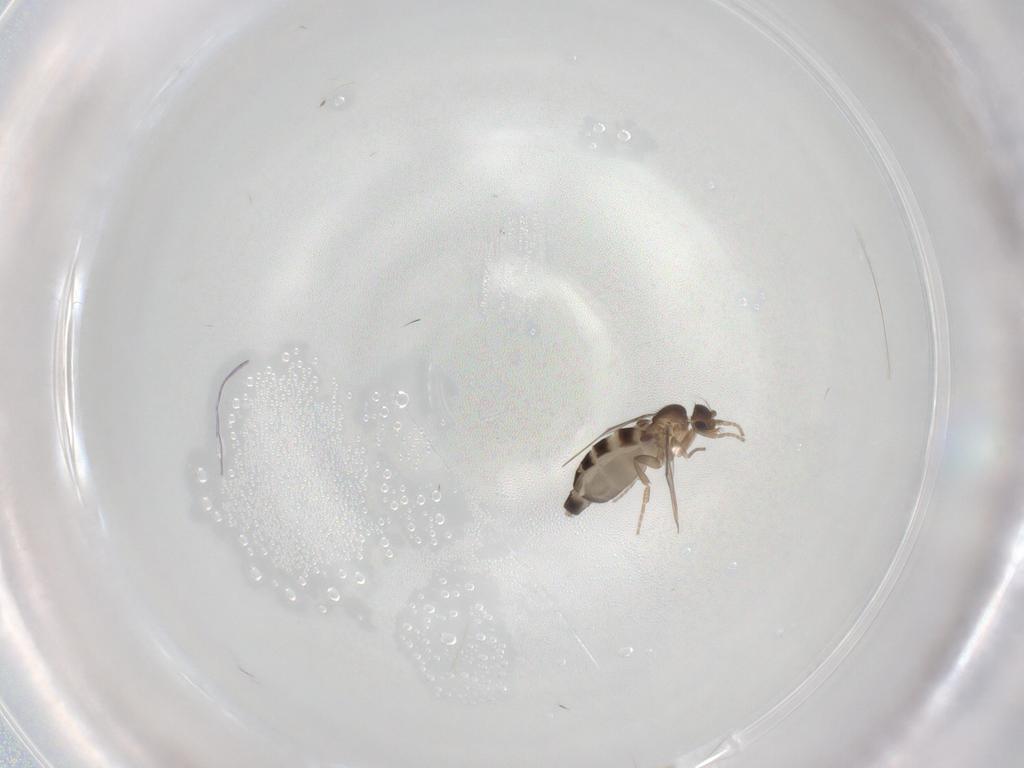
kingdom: Animalia
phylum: Arthropoda
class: Insecta
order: Diptera
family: Phoridae
